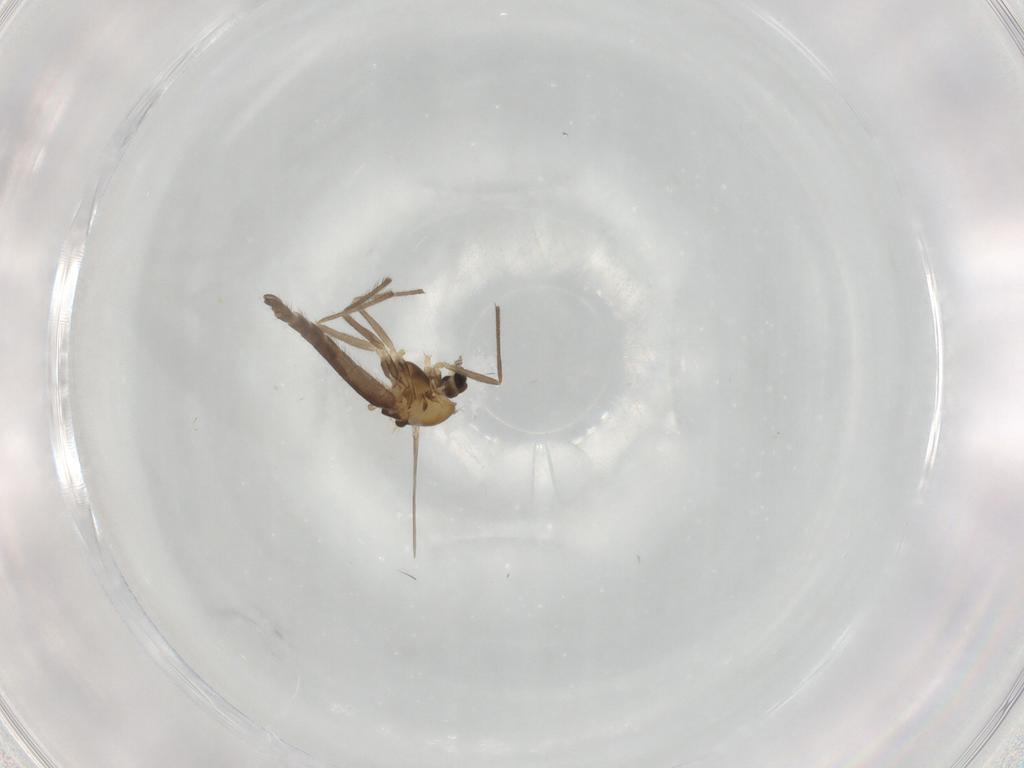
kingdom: Animalia
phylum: Arthropoda
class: Insecta
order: Diptera
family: Chironomidae
